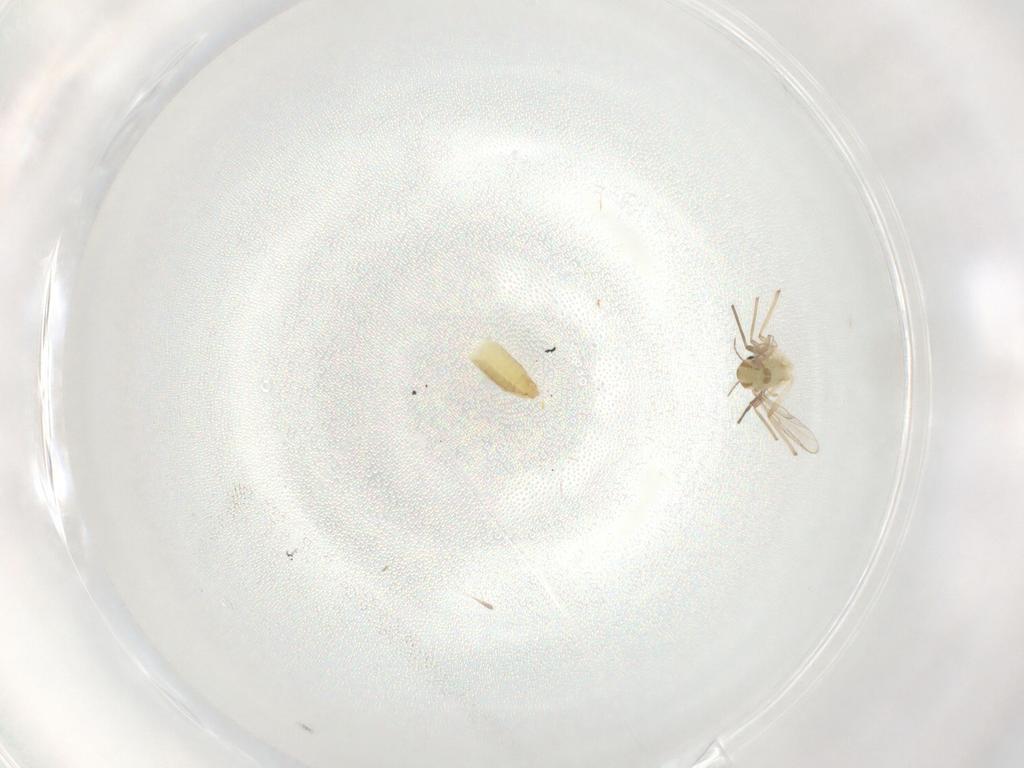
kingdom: Animalia
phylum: Arthropoda
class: Insecta
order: Diptera
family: Chironomidae
